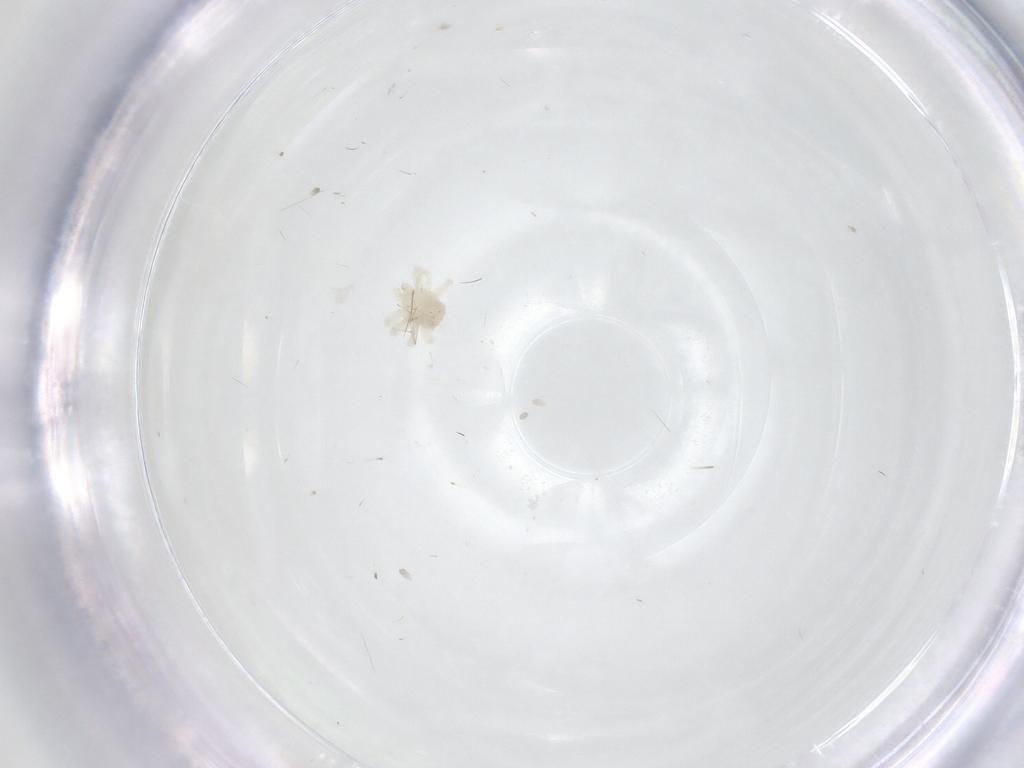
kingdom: Animalia
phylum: Arthropoda
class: Arachnida
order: Trombidiformes
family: Anystidae
